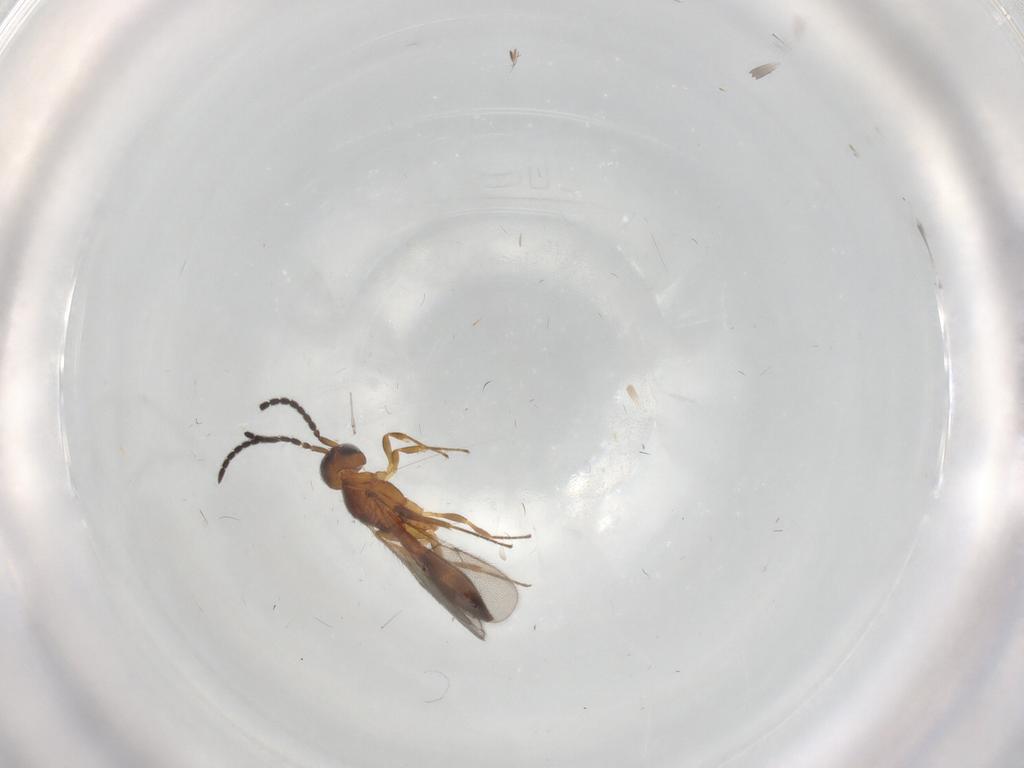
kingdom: Animalia
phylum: Arthropoda
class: Insecta
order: Hymenoptera
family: Scelionidae
